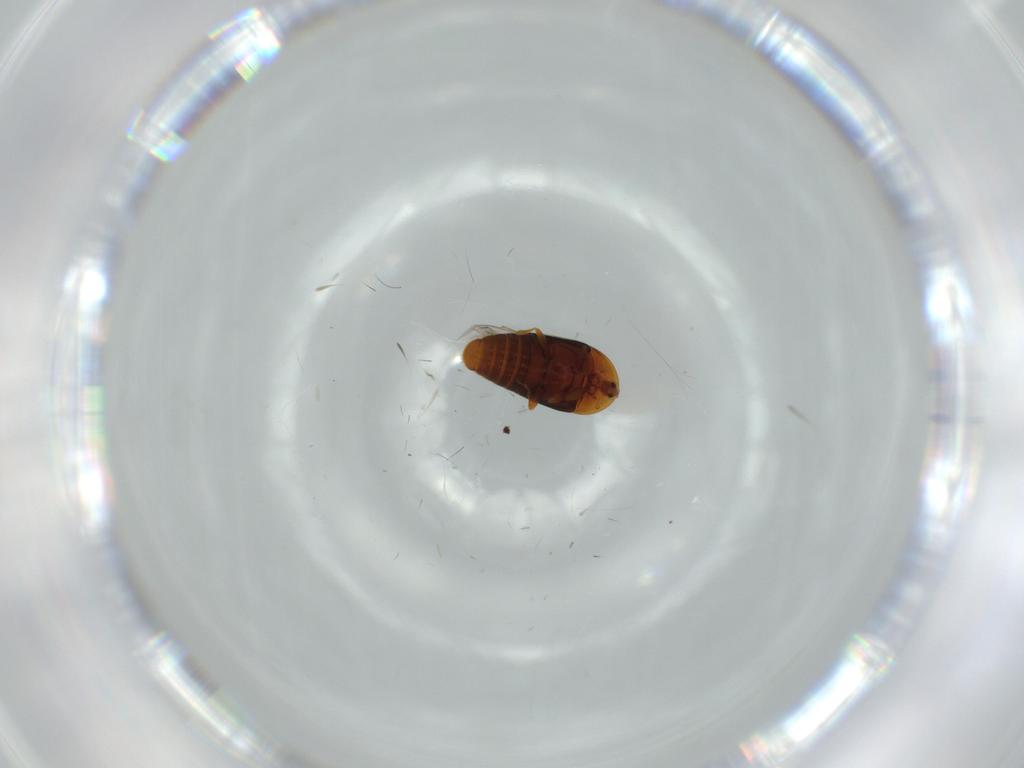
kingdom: Animalia
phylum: Arthropoda
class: Insecta
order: Coleoptera
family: Corylophidae
